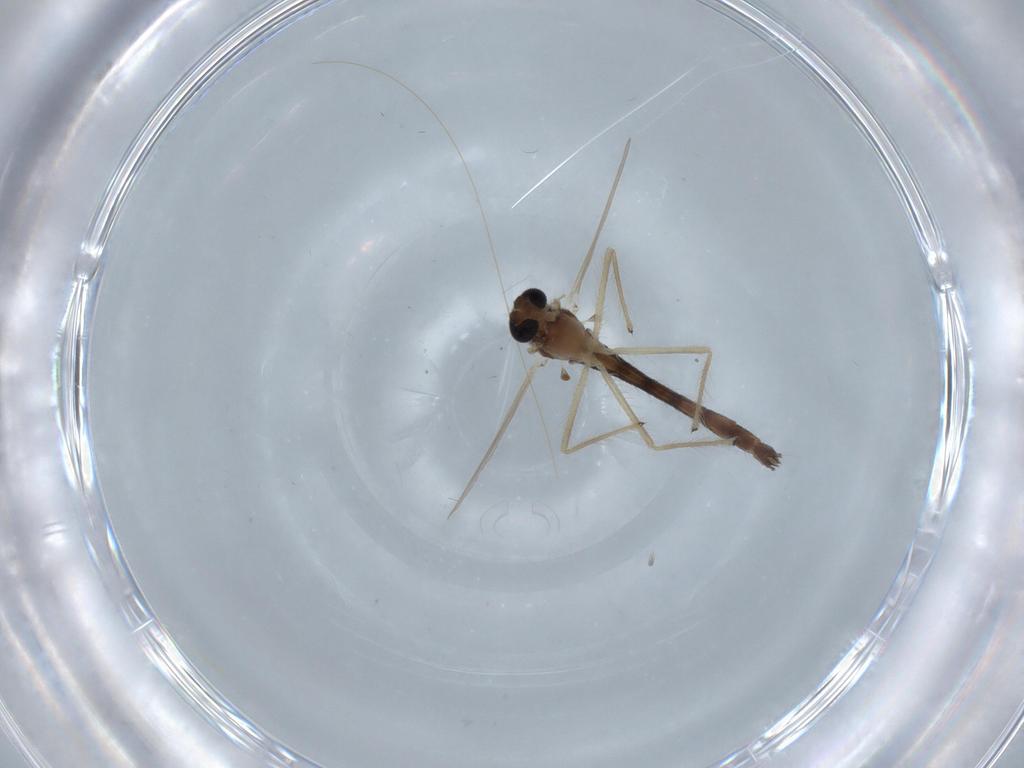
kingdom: Animalia
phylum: Arthropoda
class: Insecta
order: Diptera
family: Chironomidae
